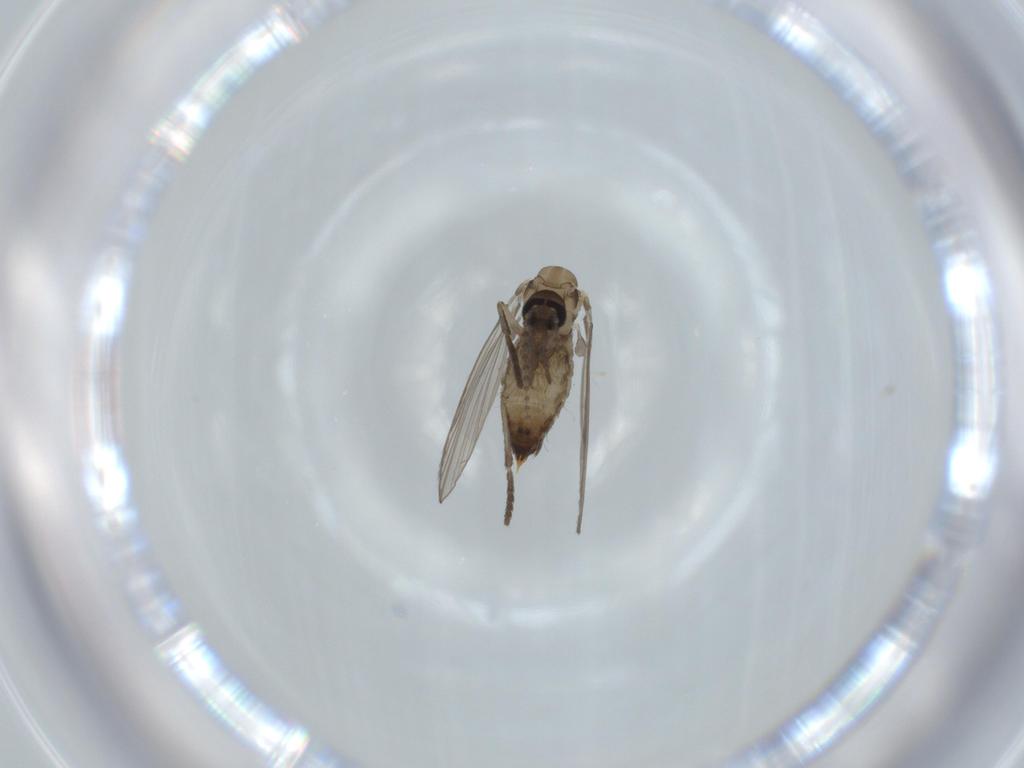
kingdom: Animalia
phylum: Arthropoda
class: Insecta
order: Diptera
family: Psychodidae
